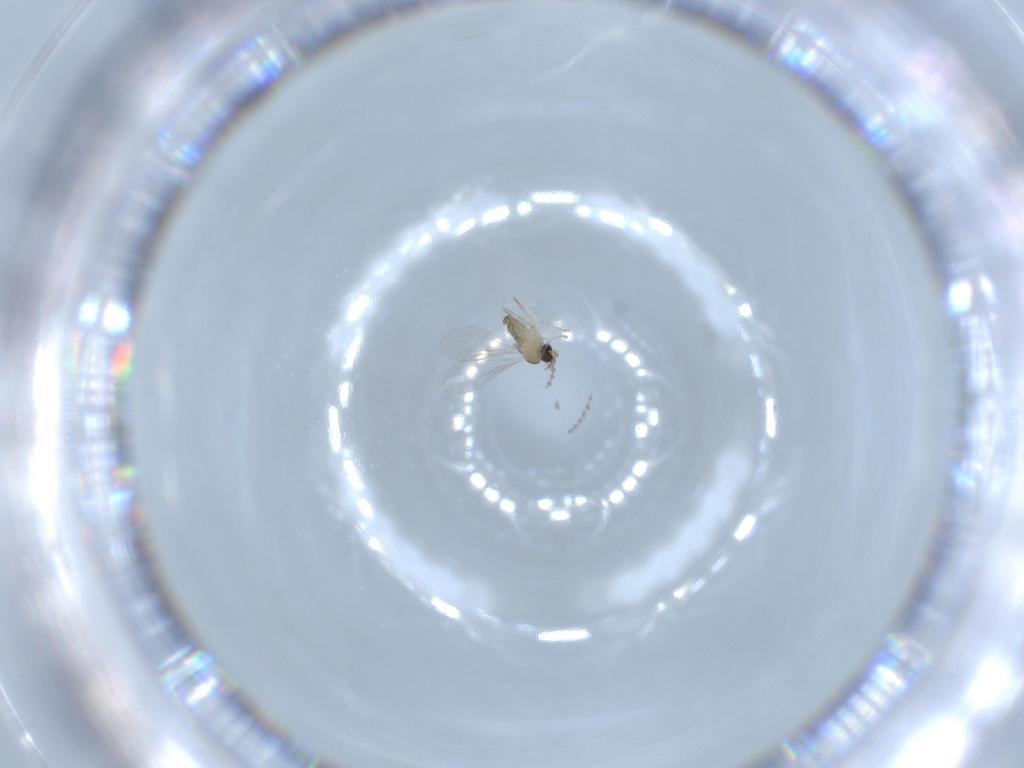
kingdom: Animalia
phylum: Arthropoda
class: Insecta
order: Diptera
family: Cecidomyiidae
